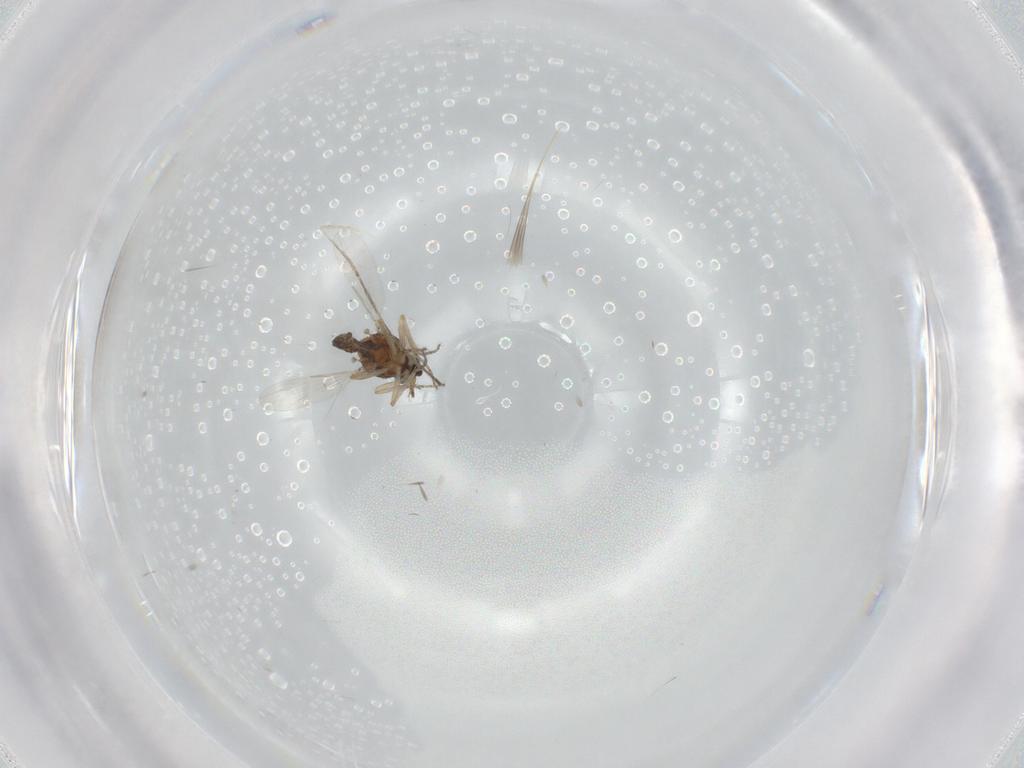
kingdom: Animalia
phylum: Arthropoda
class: Insecta
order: Diptera
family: Ceratopogonidae
